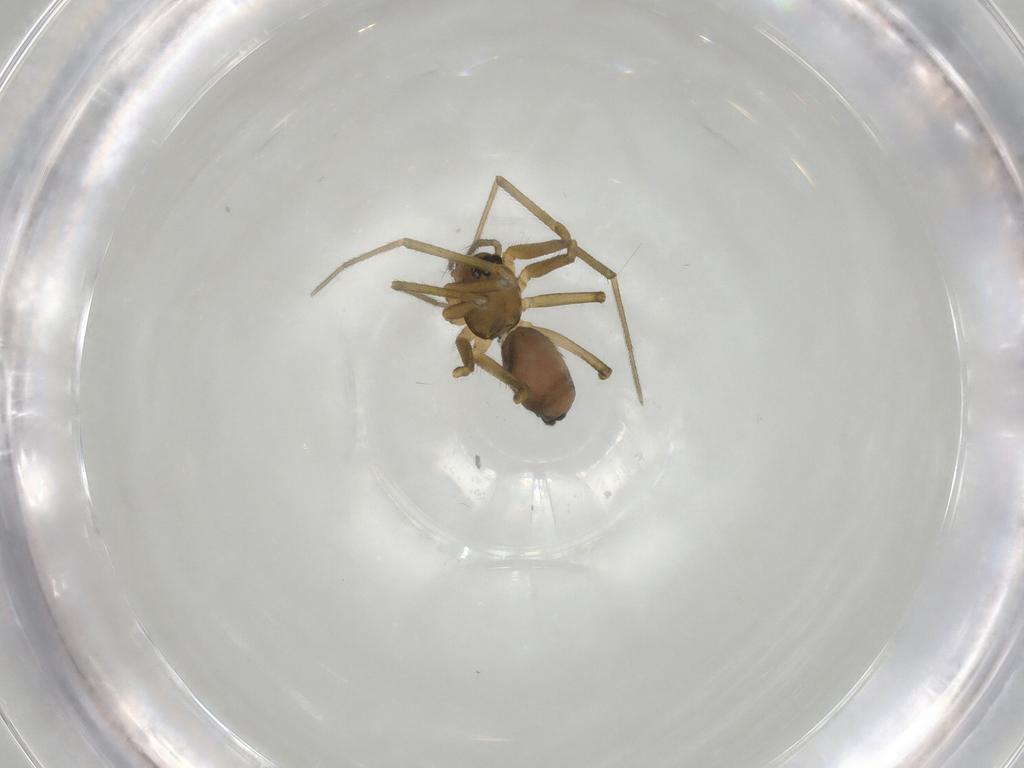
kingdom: Animalia
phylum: Arthropoda
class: Arachnida
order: Araneae
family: Linyphiidae
